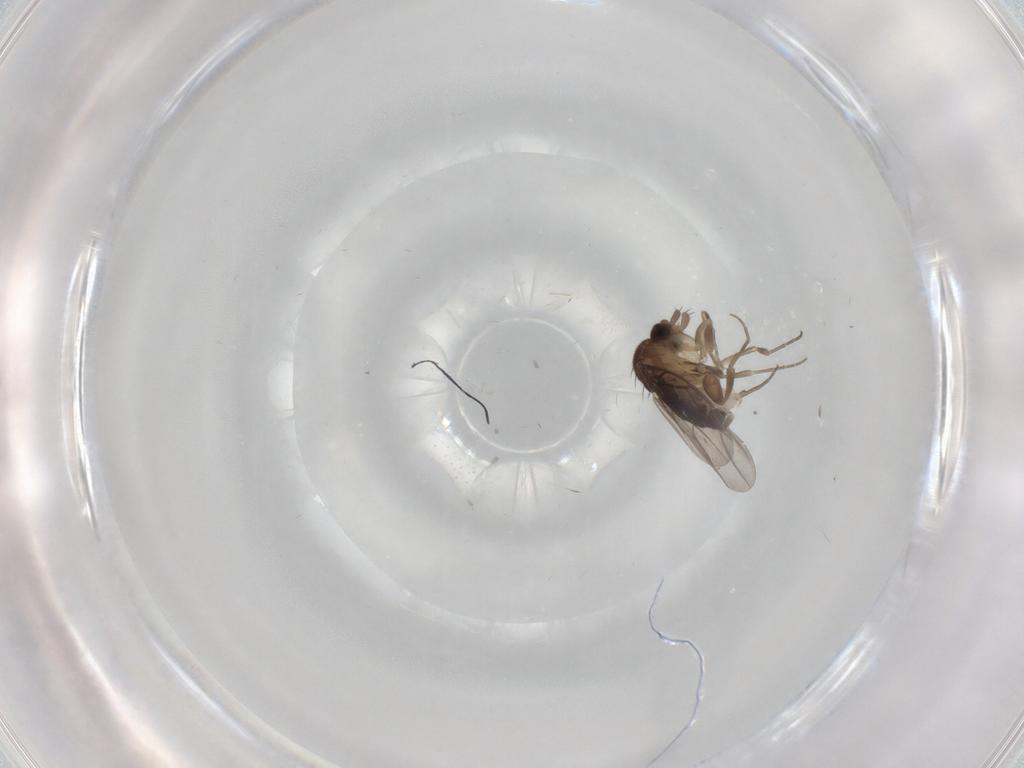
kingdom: Animalia
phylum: Arthropoda
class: Insecta
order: Diptera
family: Phoridae
